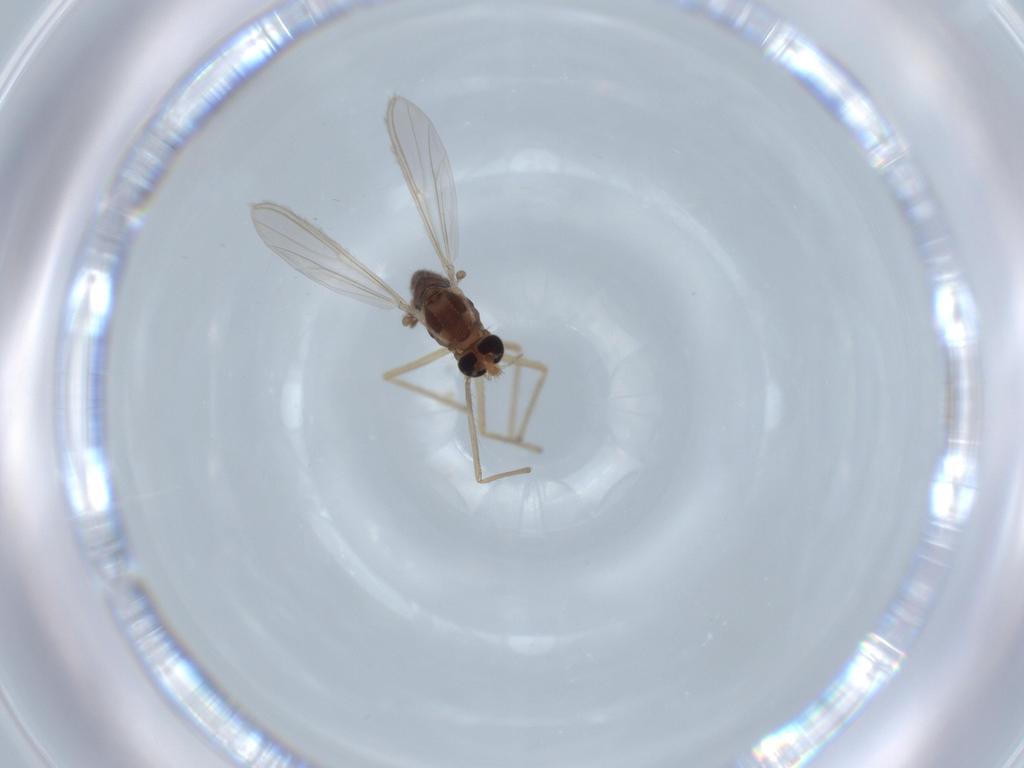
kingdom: Animalia
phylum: Arthropoda
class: Insecta
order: Diptera
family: Chironomidae
